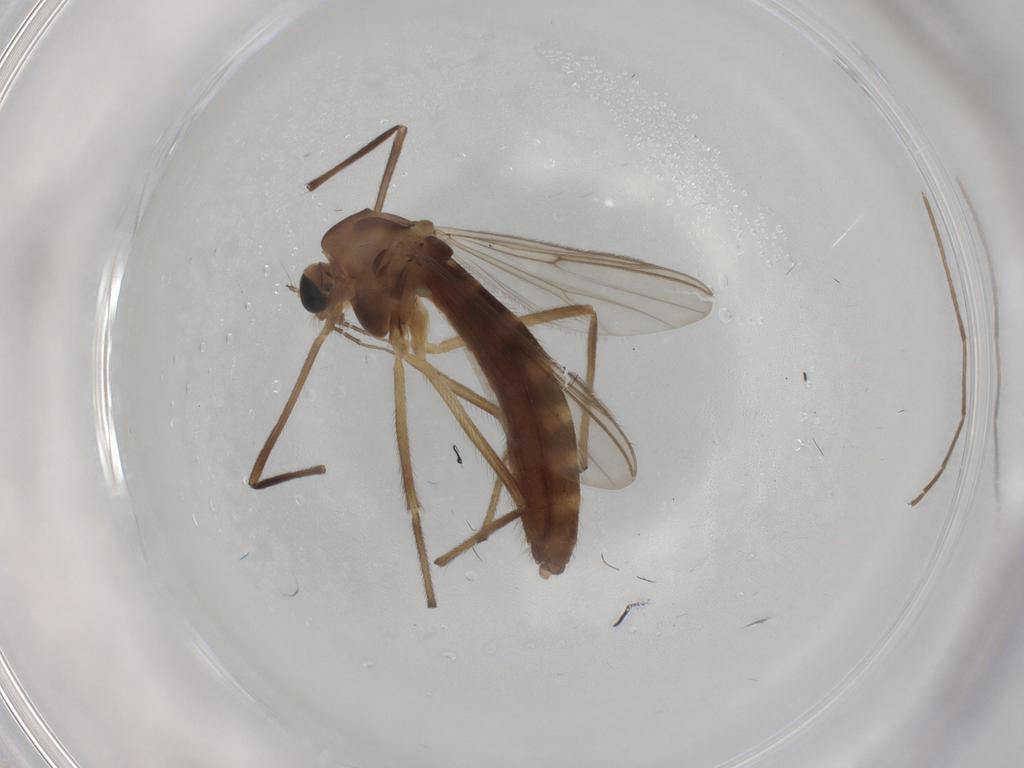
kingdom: Animalia
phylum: Arthropoda
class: Insecta
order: Diptera
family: Chironomidae
